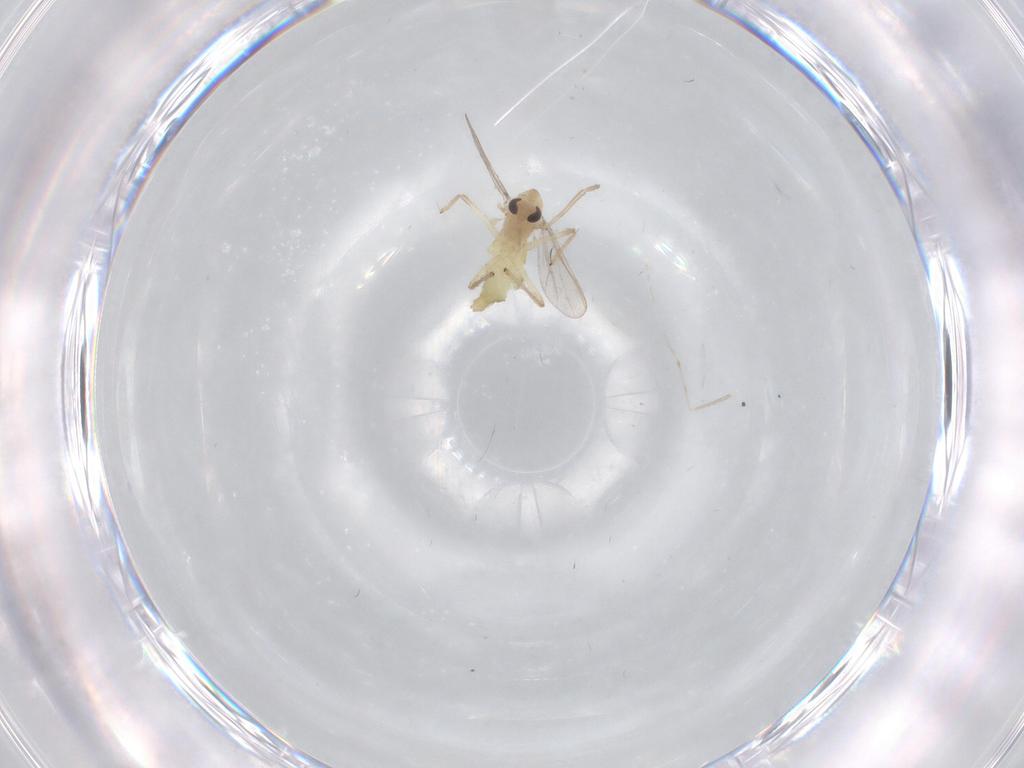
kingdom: Animalia
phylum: Arthropoda
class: Insecta
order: Diptera
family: Chironomidae
